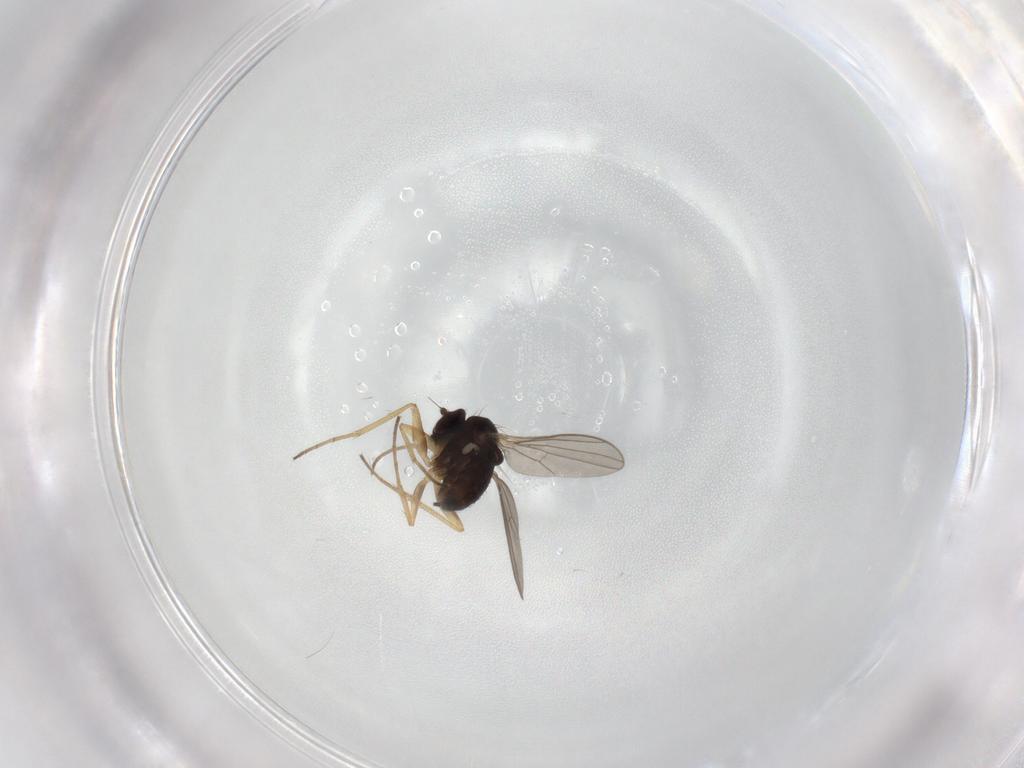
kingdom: Animalia
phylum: Arthropoda
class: Insecta
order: Diptera
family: Dolichopodidae
